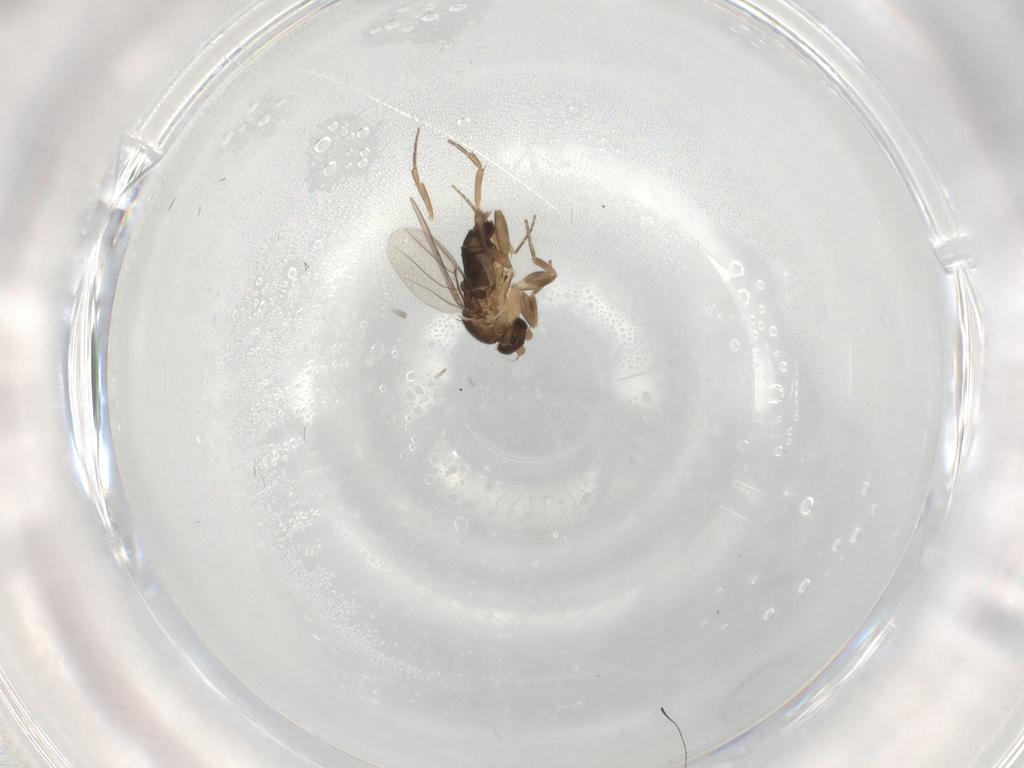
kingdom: Animalia
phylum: Arthropoda
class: Insecta
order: Diptera
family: Phoridae
